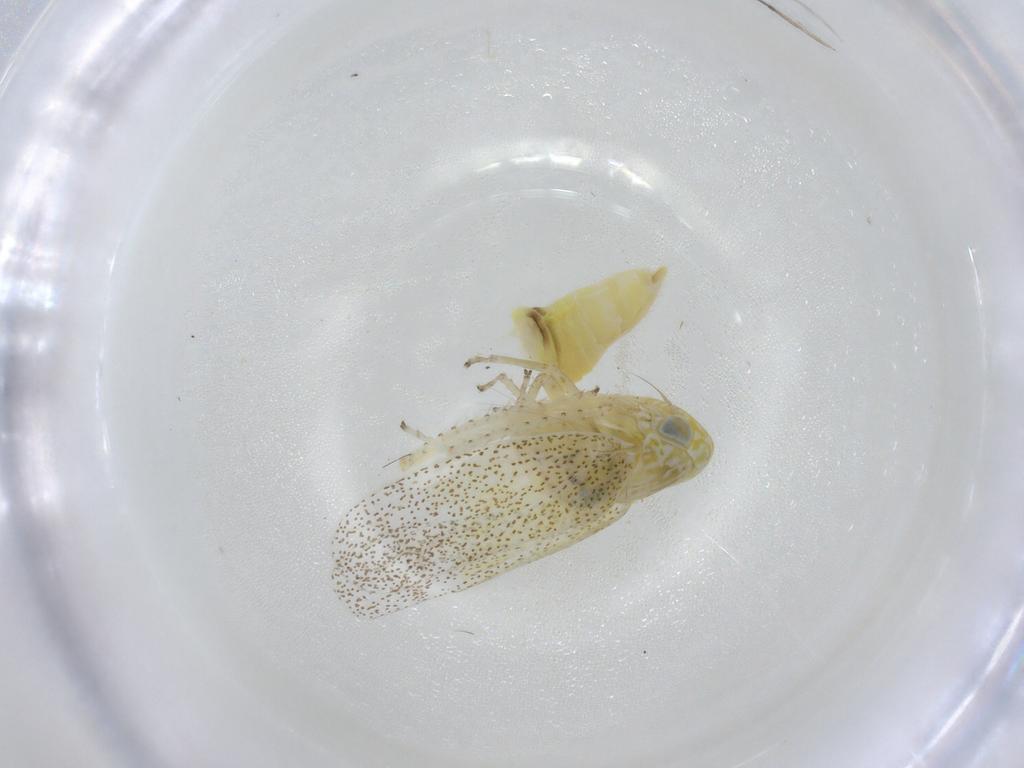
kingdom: Animalia
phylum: Arthropoda
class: Insecta
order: Hemiptera
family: Cicadellidae
